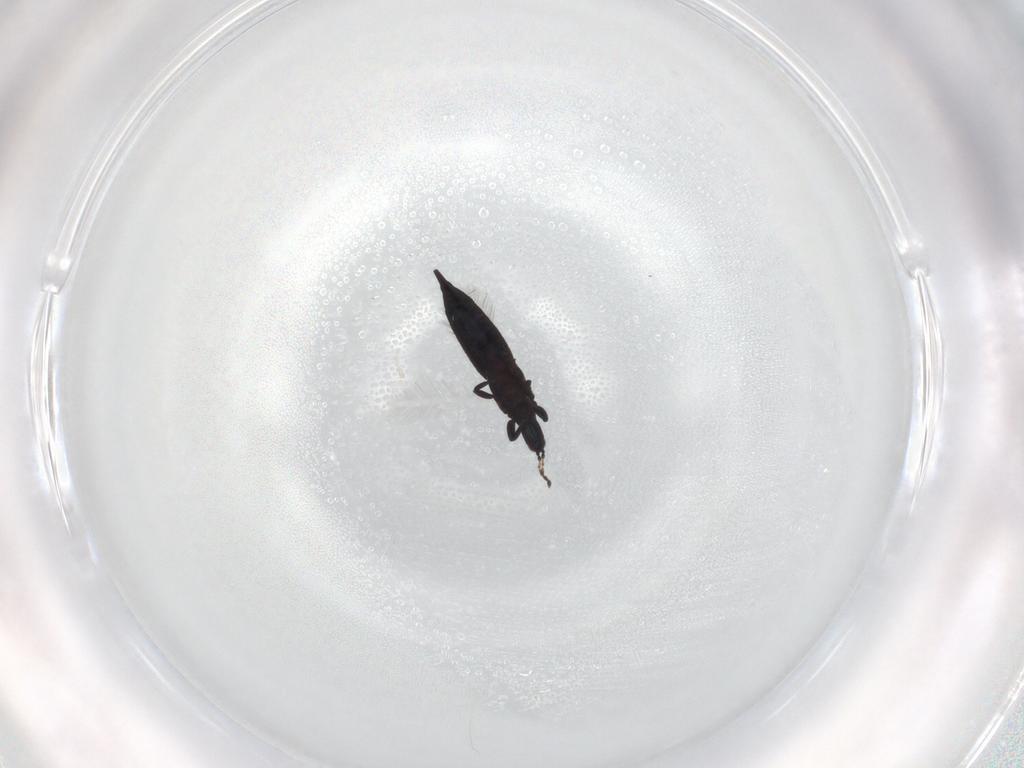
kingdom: Animalia
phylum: Arthropoda
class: Insecta
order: Thysanoptera
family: Phlaeothripidae
